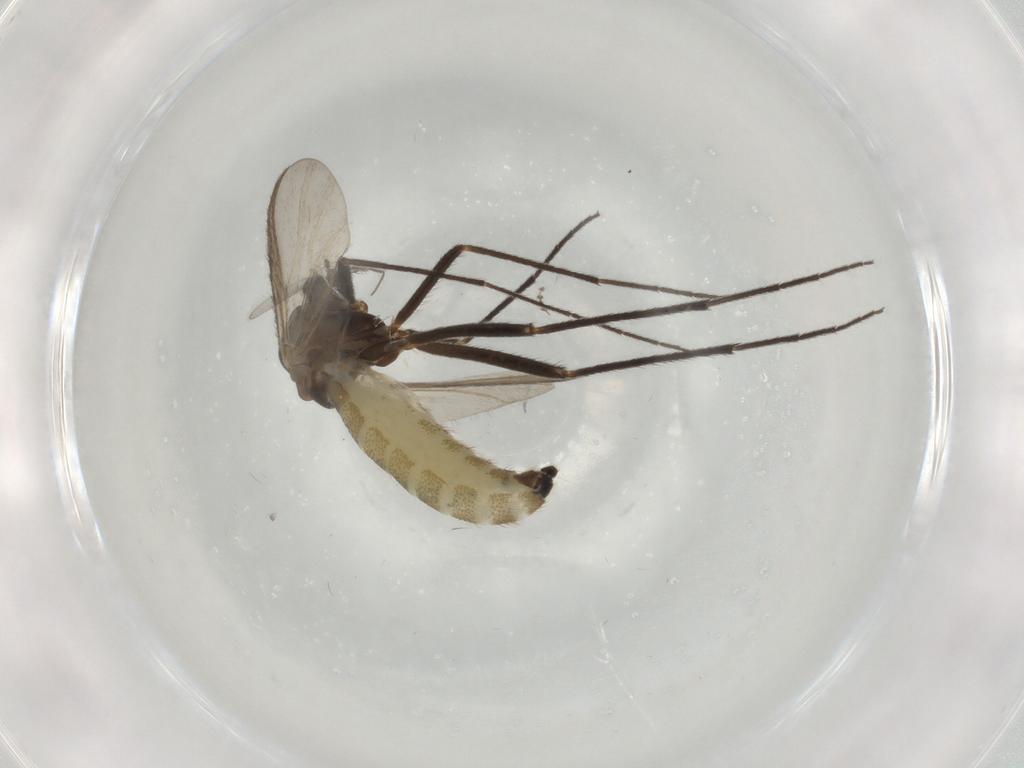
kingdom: Animalia
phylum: Arthropoda
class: Insecta
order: Diptera
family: Chironomidae
